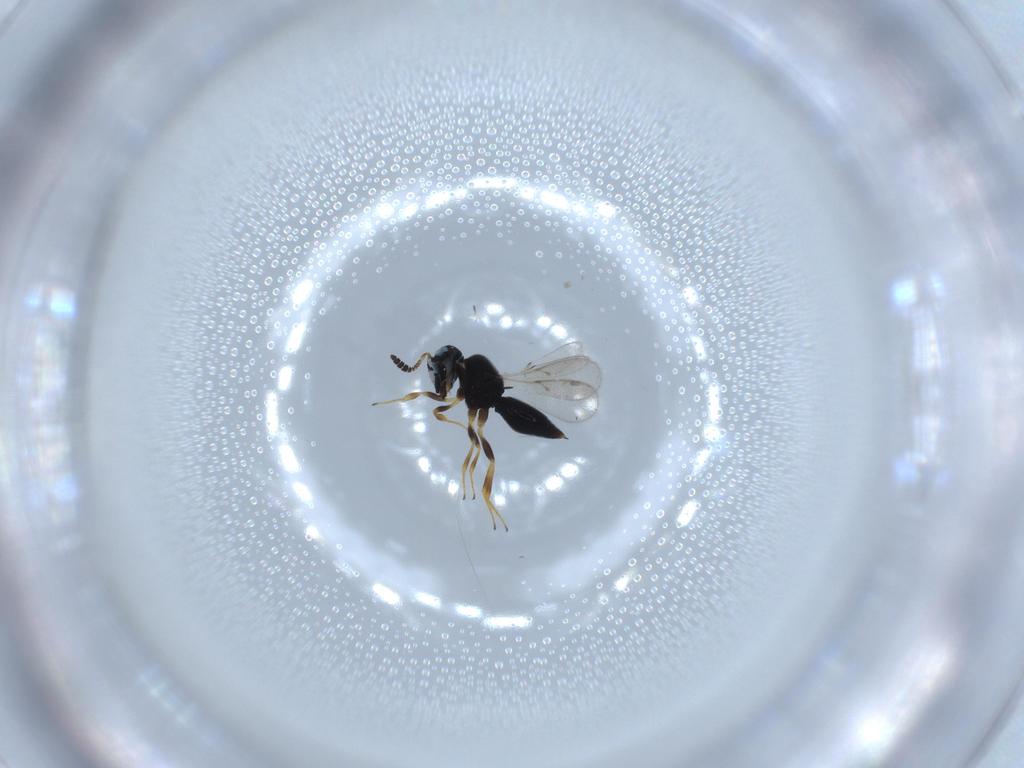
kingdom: Animalia
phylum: Arthropoda
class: Insecta
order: Hymenoptera
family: Scelionidae
